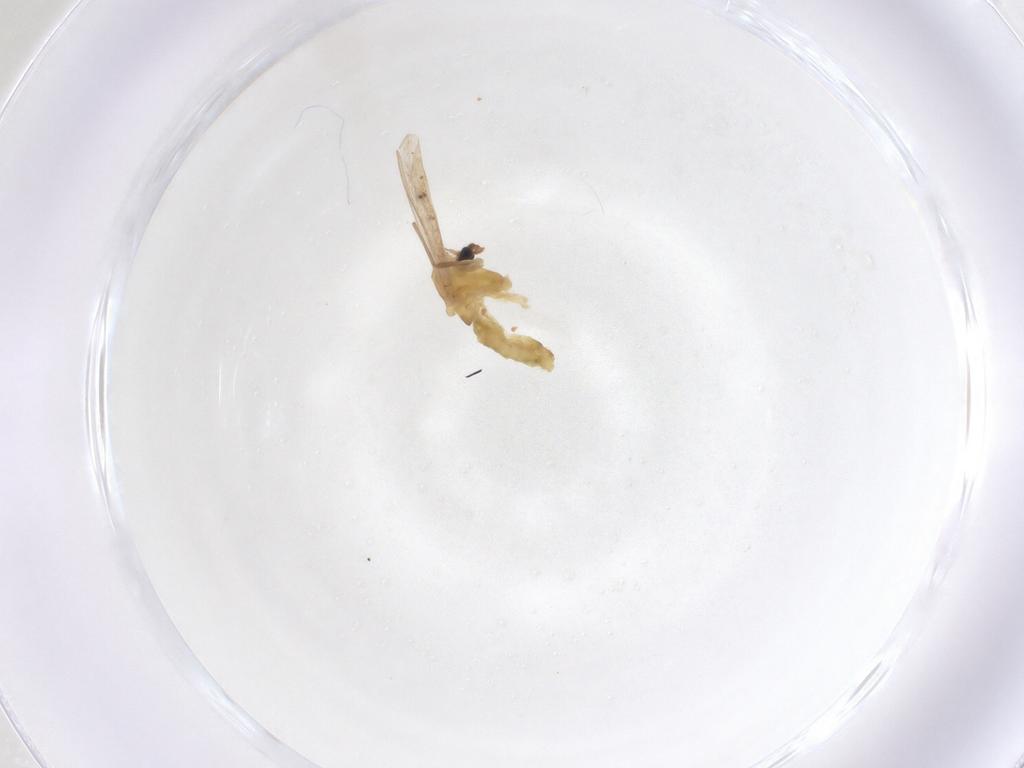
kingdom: Animalia
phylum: Arthropoda
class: Insecta
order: Diptera
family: Chironomidae
